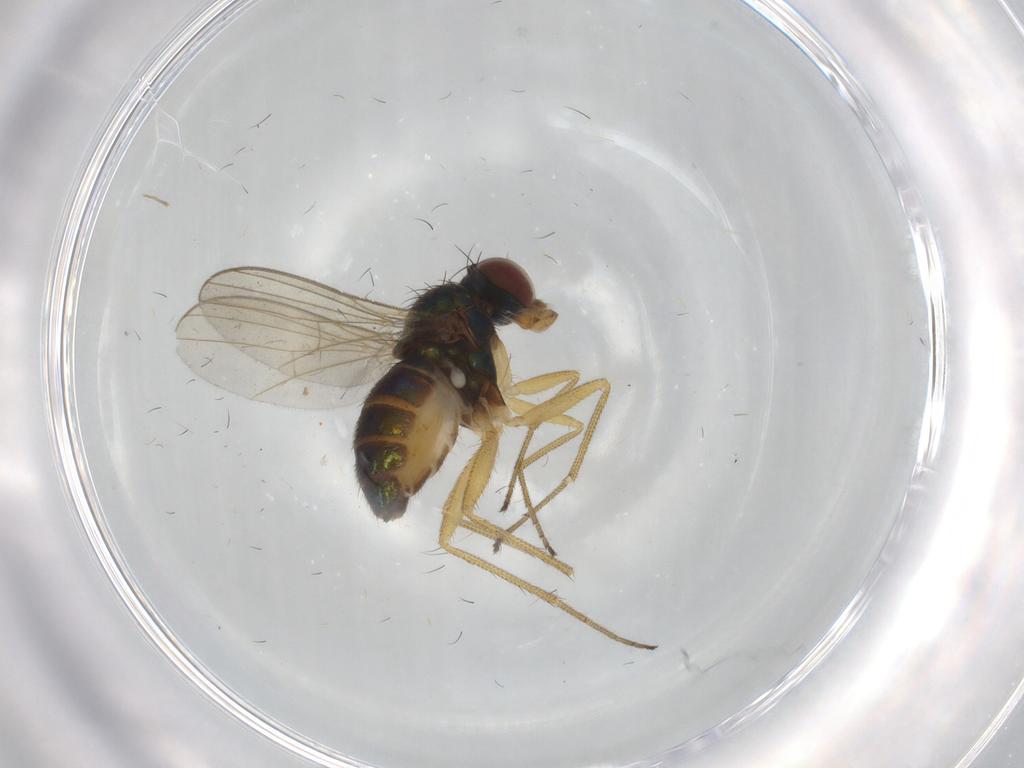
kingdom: Animalia
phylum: Arthropoda
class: Insecta
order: Diptera
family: Dolichopodidae
